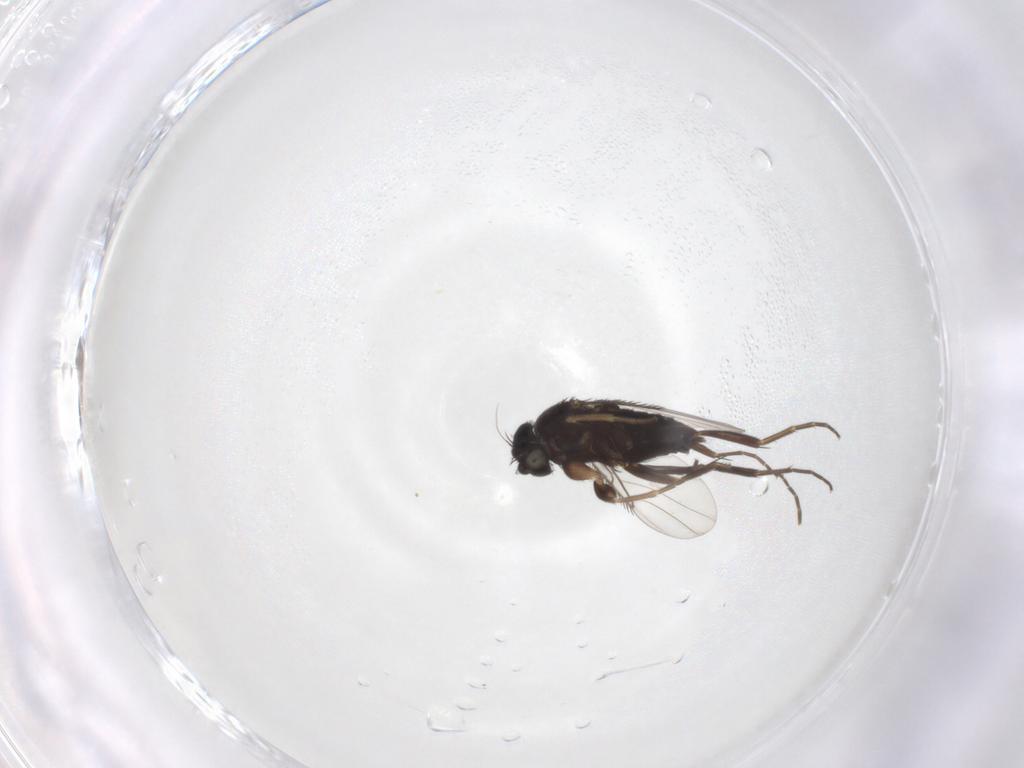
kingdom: Animalia
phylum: Arthropoda
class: Insecta
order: Diptera
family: Phoridae
